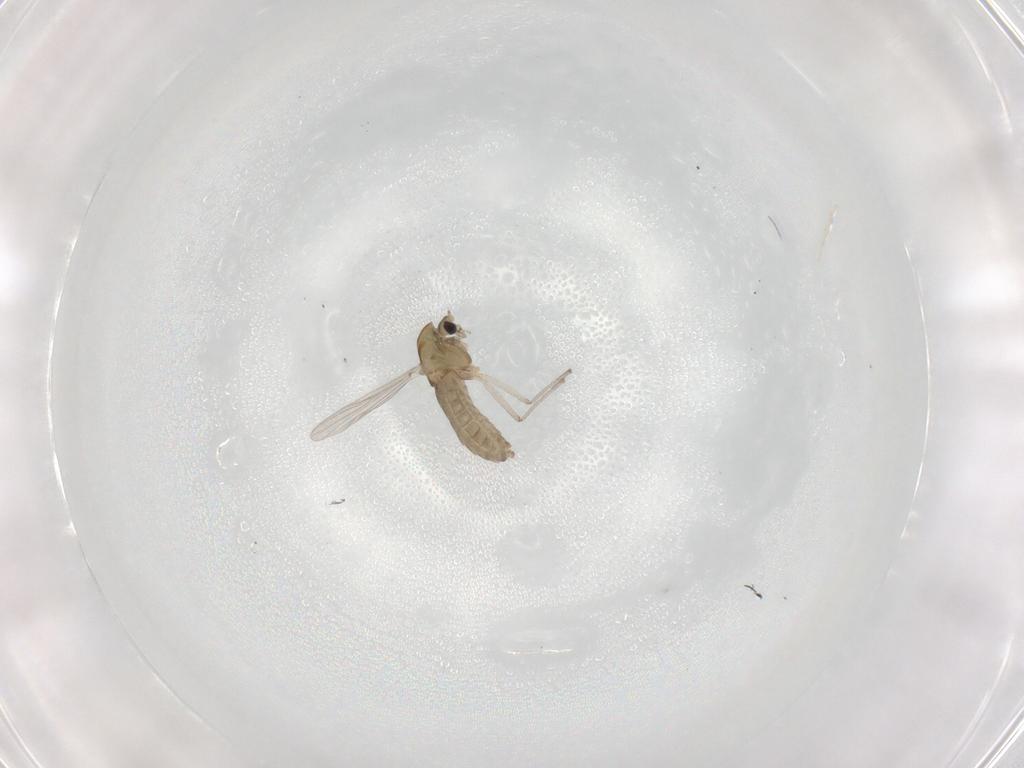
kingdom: Animalia
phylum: Arthropoda
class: Insecta
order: Diptera
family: Chironomidae
